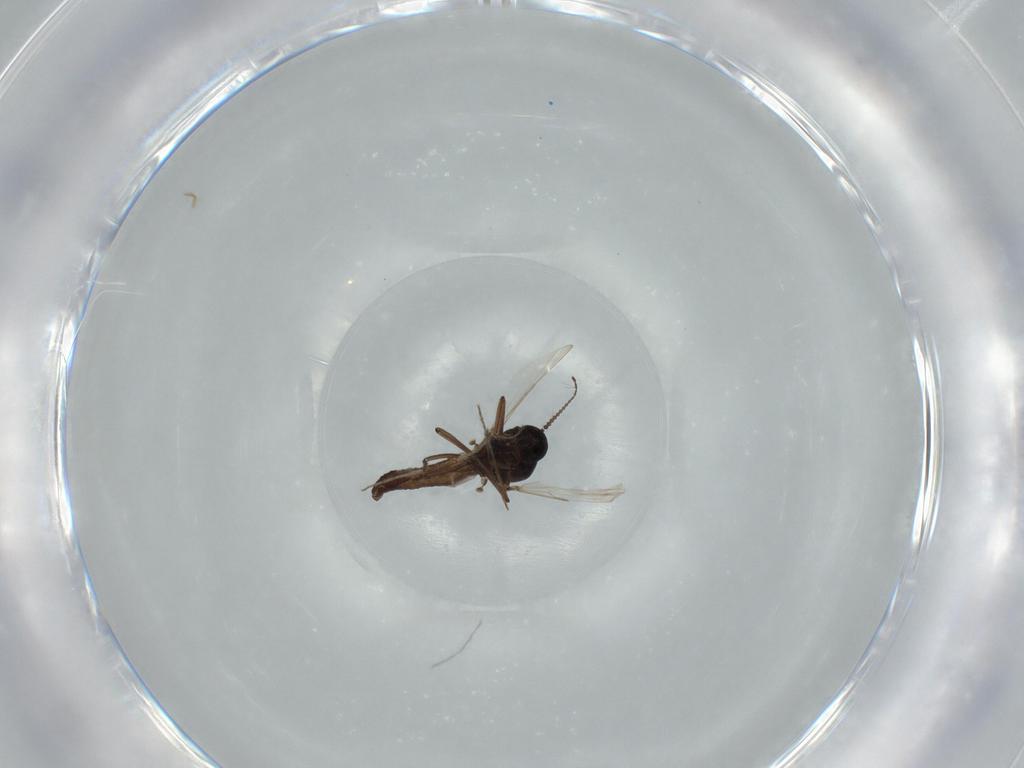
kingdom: Animalia
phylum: Arthropoda
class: Insecta
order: Diptera
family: Chironomidae
